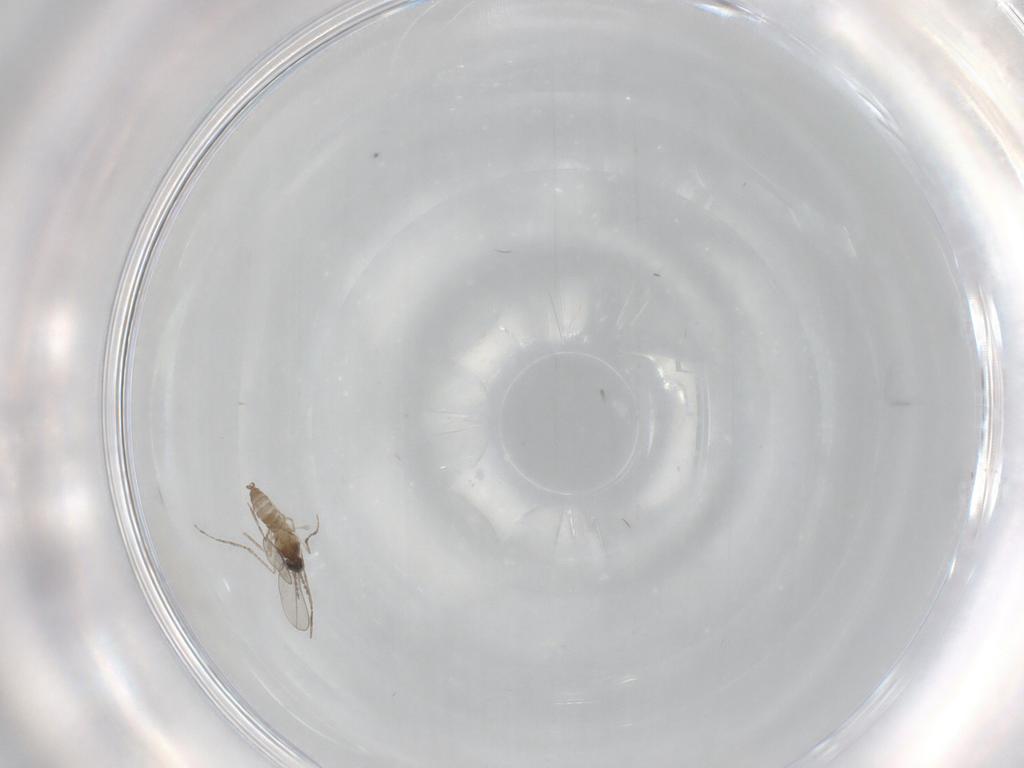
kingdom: Animalia
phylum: Arthropoda
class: Insecta
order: Diptera
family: Cecidomyiidae
